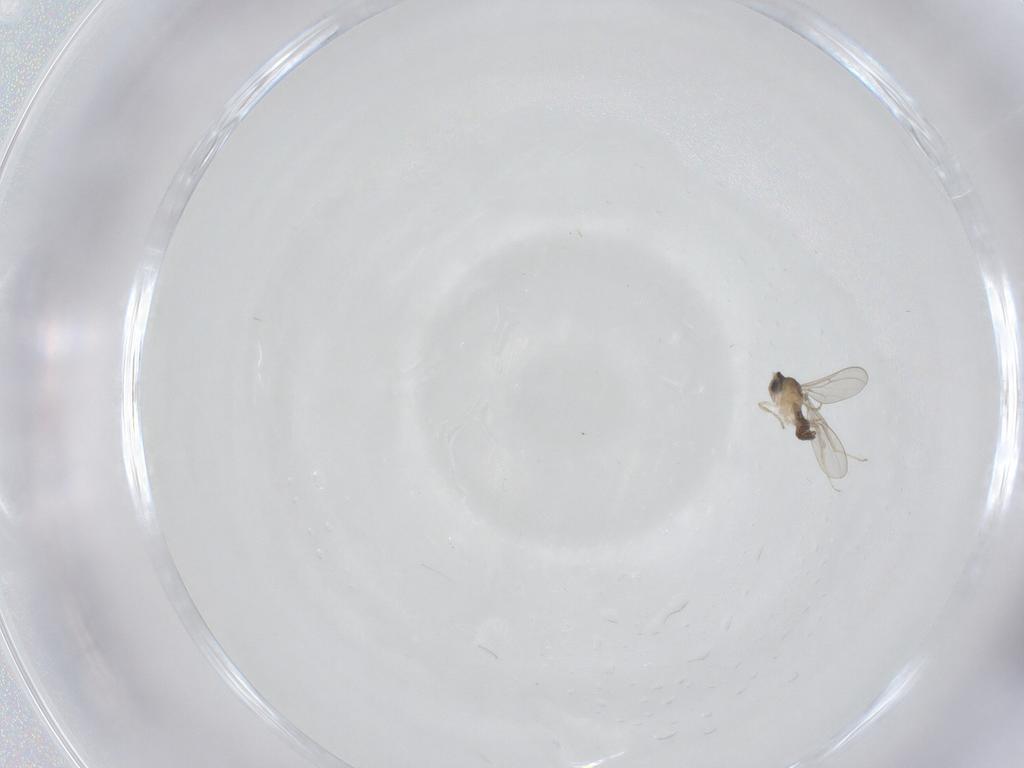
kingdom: Animalia
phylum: Arthropoda
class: Insecta
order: Diptera
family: Cecidomyiidae
